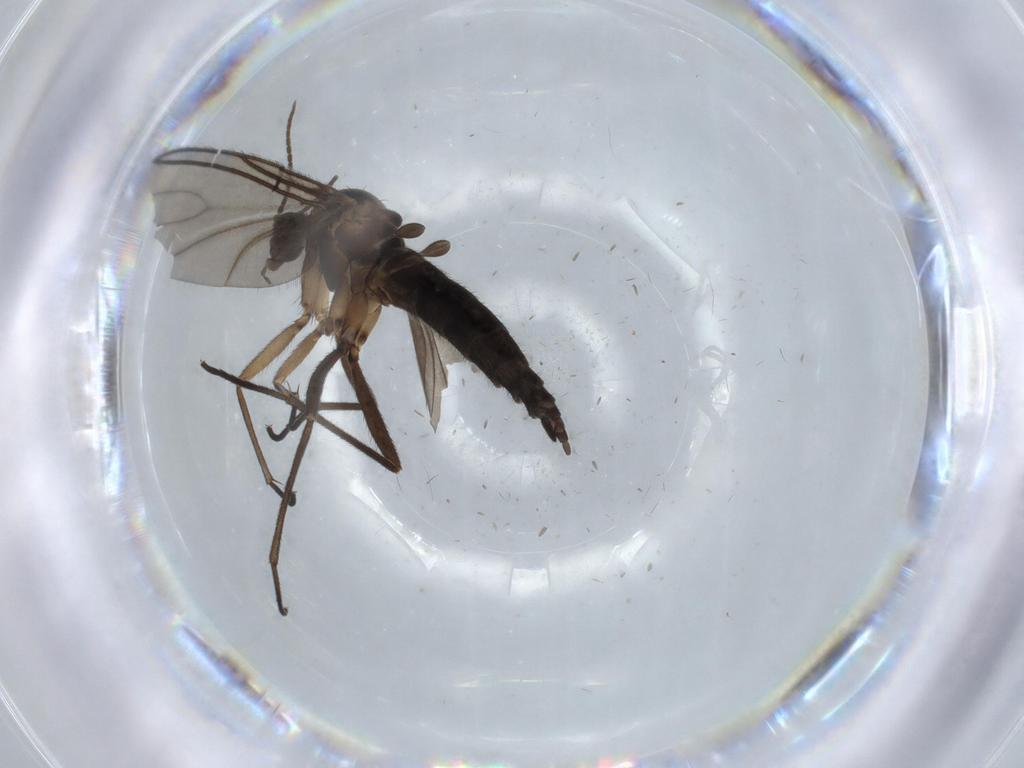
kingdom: Animalia
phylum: Arthropoda
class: Insecta
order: Diptera
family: Sciaridae
